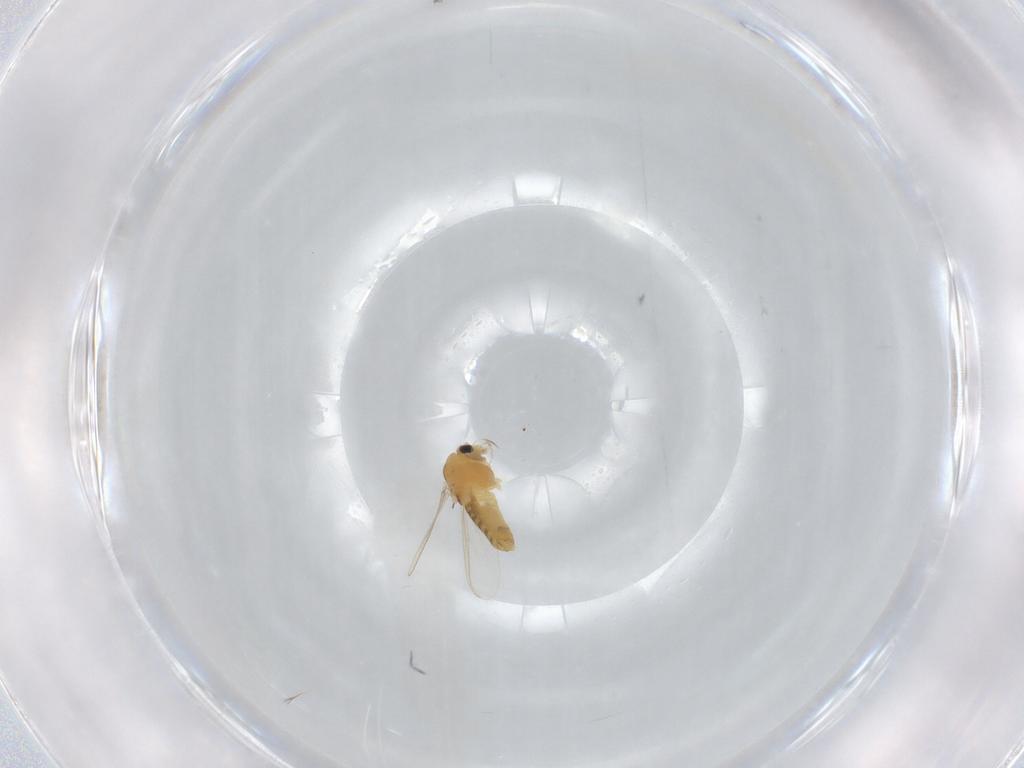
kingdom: Animalia
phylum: Arthropoda
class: Insecta
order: Diptera
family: Chironomidae
